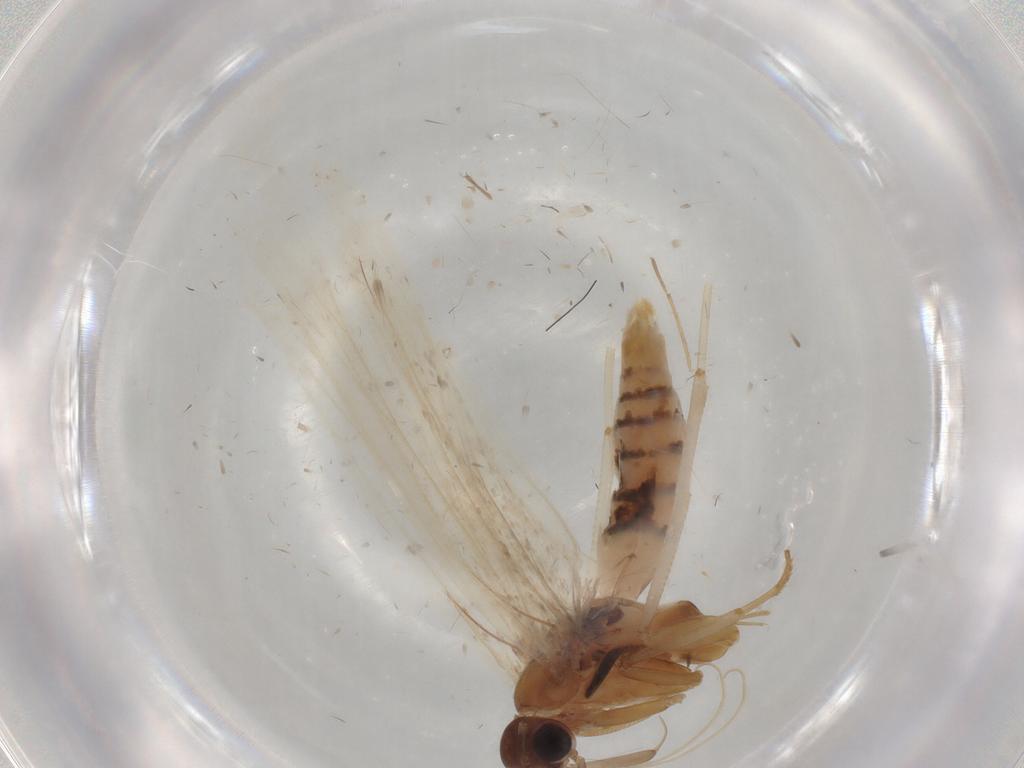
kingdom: Animalia
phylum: Arthropoda
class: Insecta
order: Lepidoptera
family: Gelechiidae
